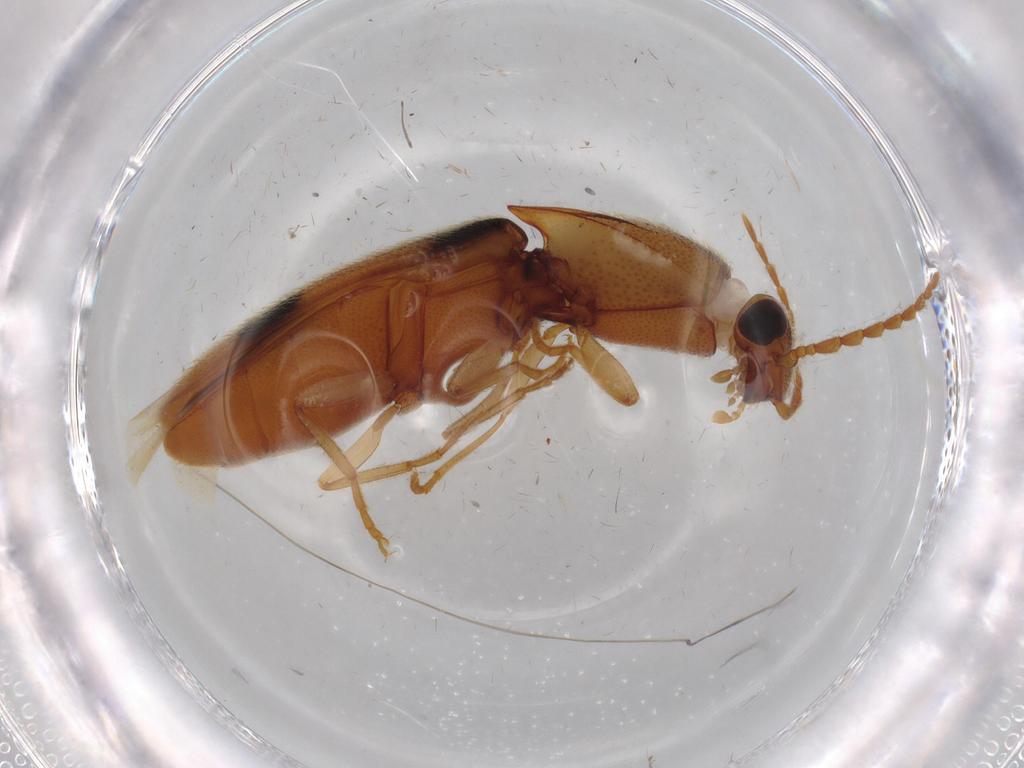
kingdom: Animalia
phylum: Arthropoda
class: Insecta
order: Coleoptera
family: Elateridae
